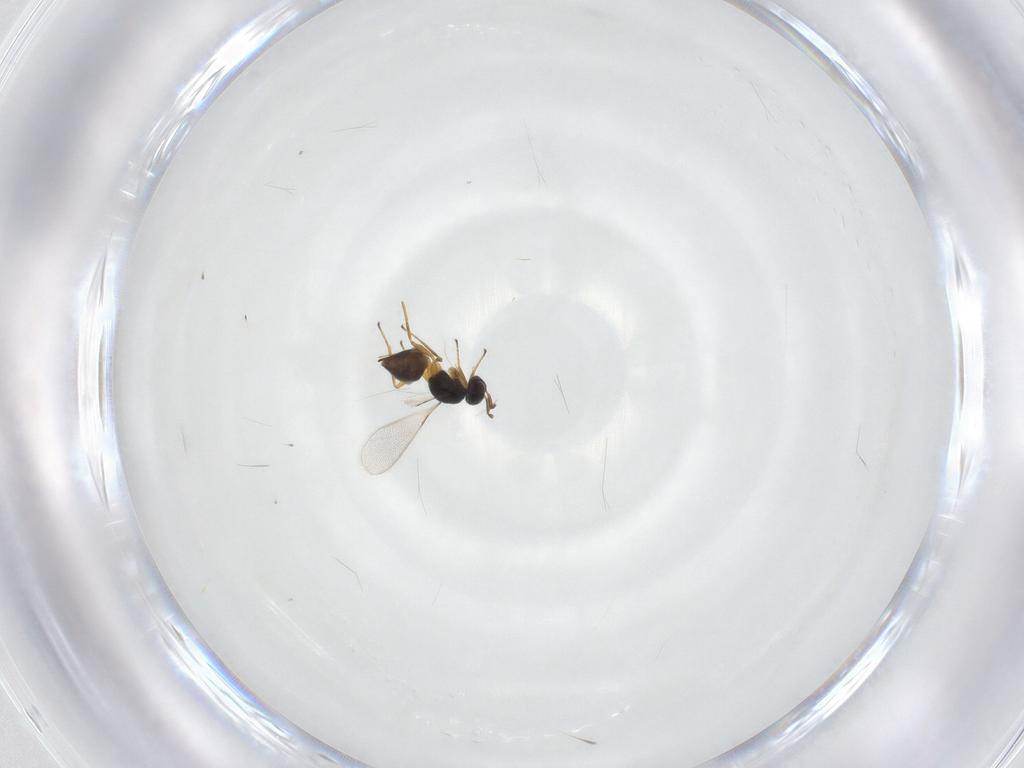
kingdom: Animalia
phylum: Arthropoda
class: Insecta
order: Hymenoptera
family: Mymaridae
